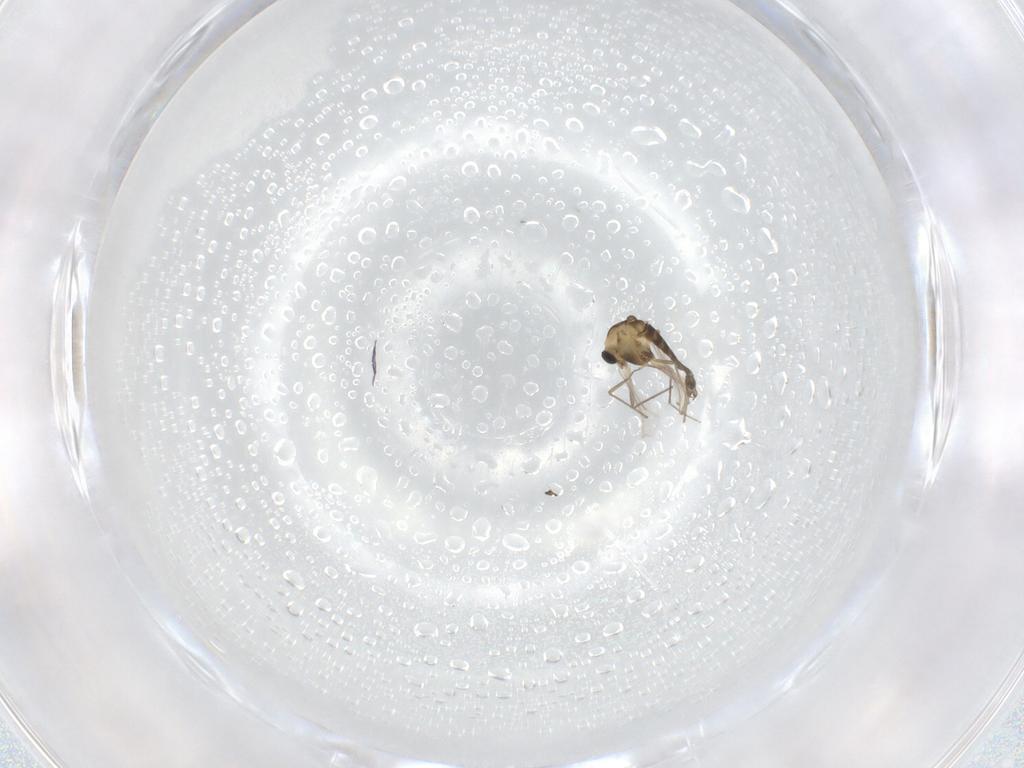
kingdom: Animalia
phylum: Arthropoda
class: Insecta
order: Diptera
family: Chironomidae
